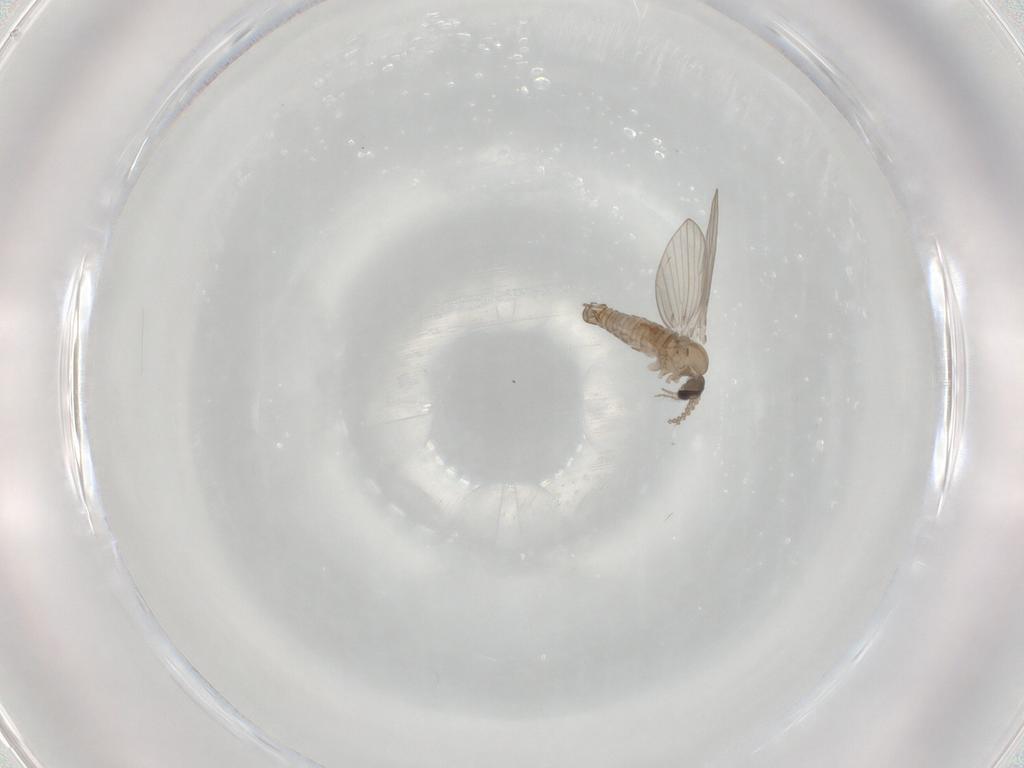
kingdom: Animalia
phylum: Arthropoda
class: Insecta
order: Diptera
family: Psychodidae
